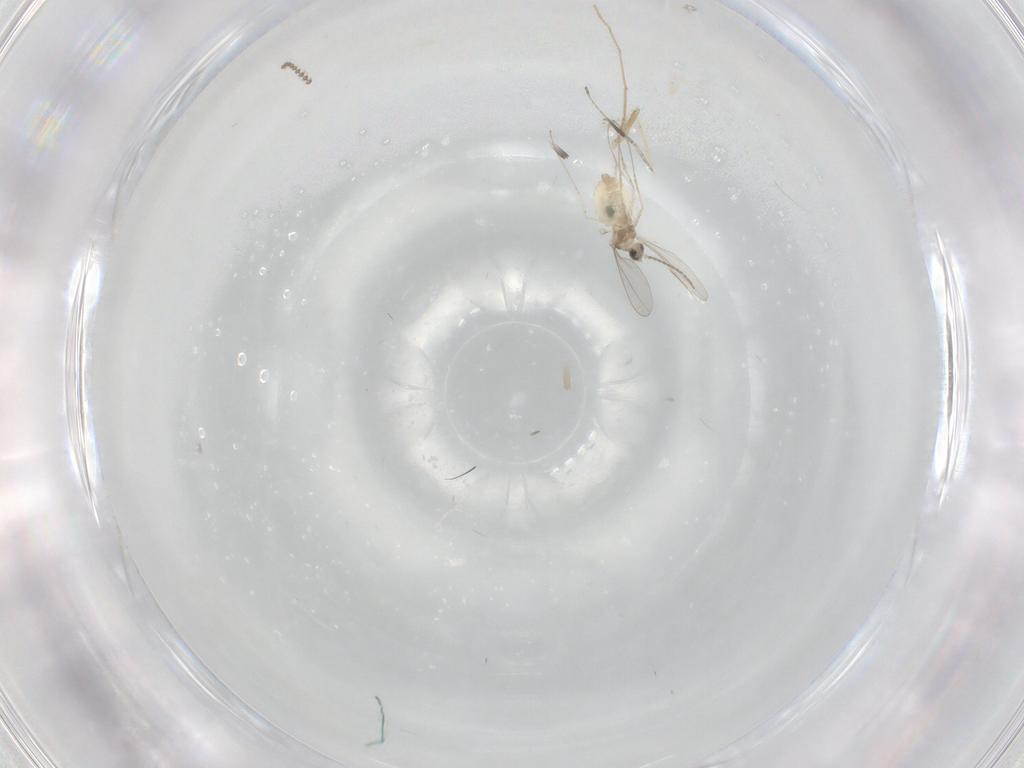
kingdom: Animalia
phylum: Arthropoda
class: Insecta
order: Diptera
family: Cecidomyiidae
